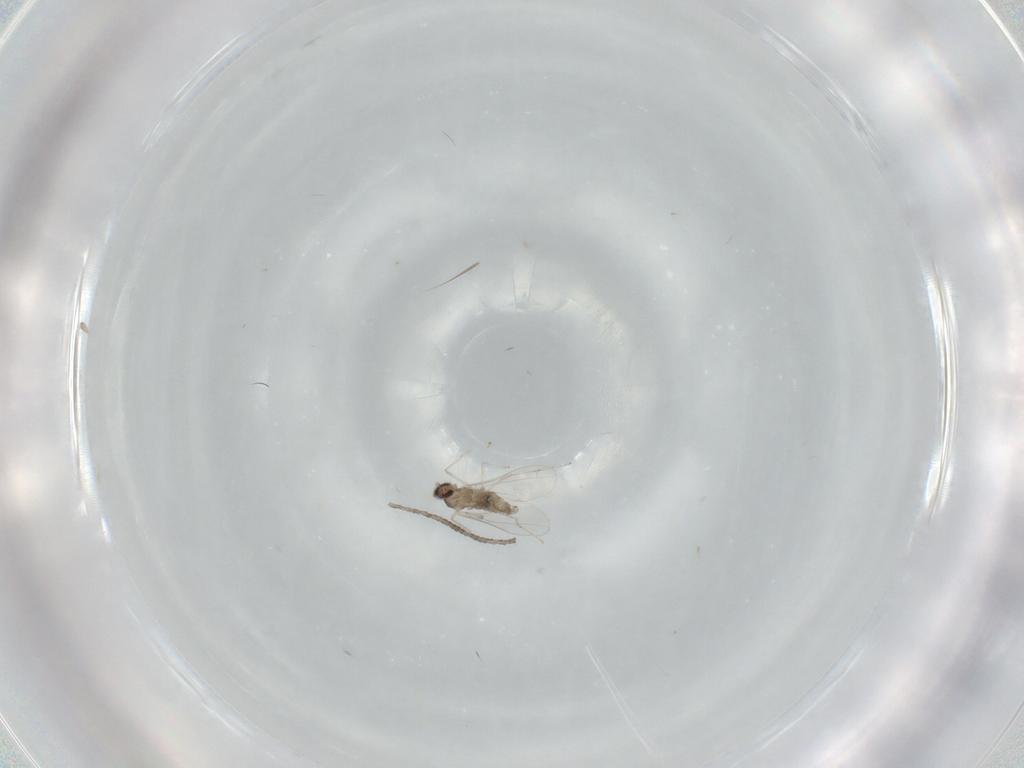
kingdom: Animalia
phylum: Arthropoda
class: Insecta
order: Diptera
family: Cecidomyiidae
